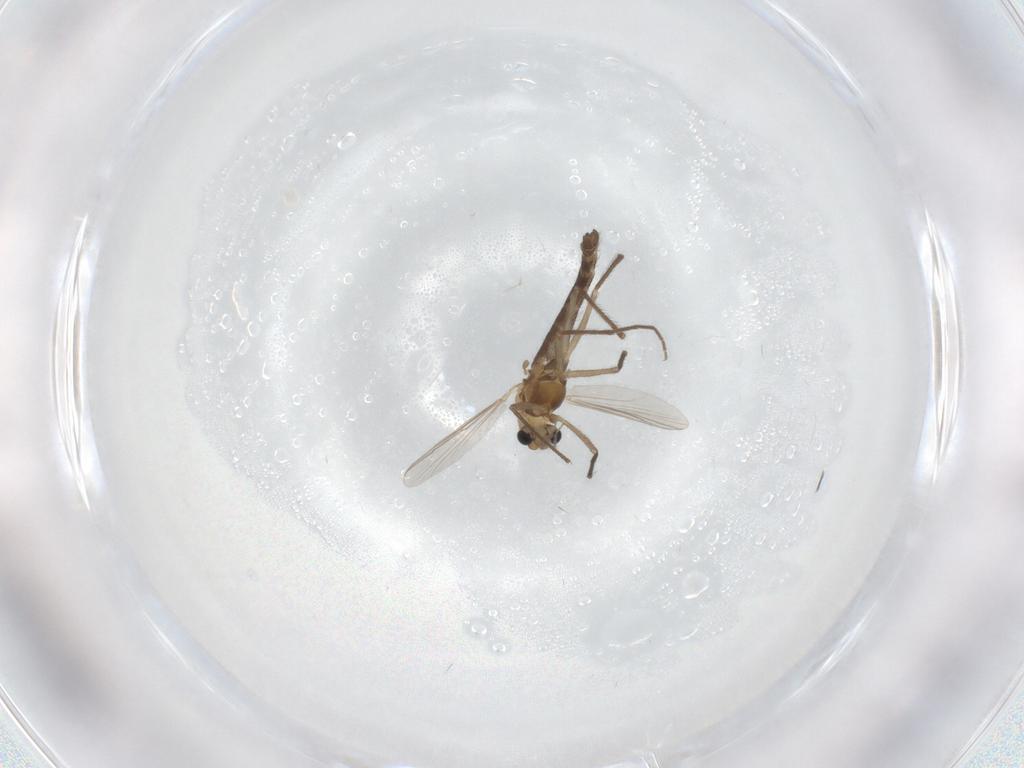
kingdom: Animalia
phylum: Arthropoda
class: Insecta
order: Diptera
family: Chironomidae
